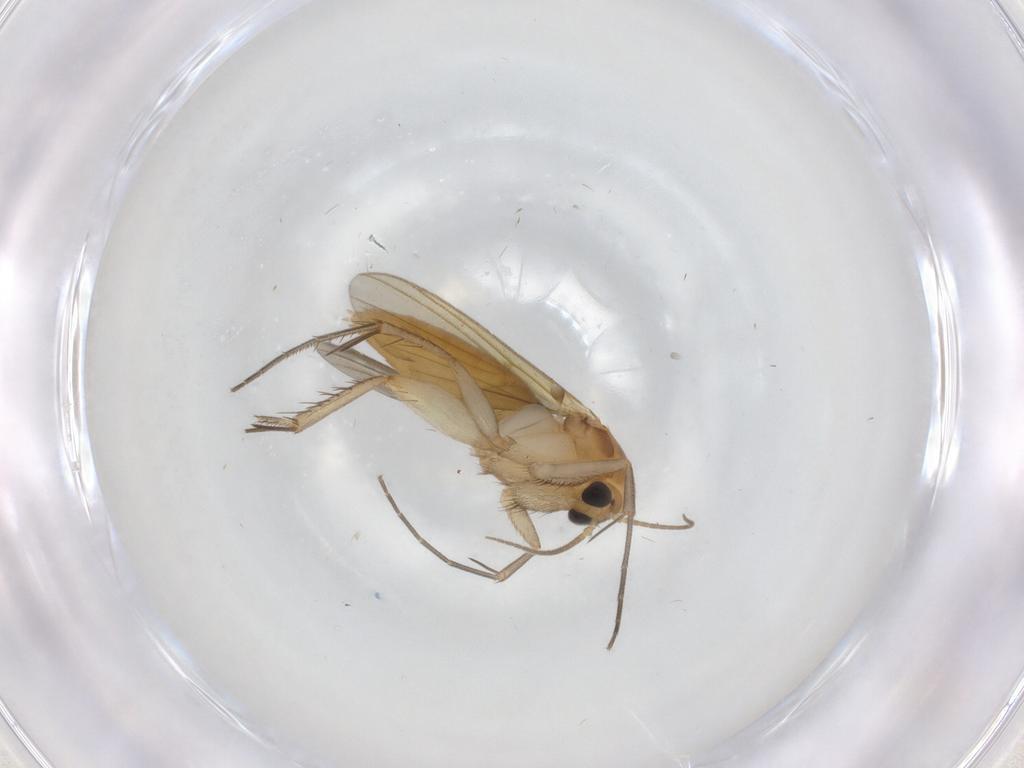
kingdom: Animalia
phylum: Arthropoda
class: Insecta
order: Diptera
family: Mycetophilidae
